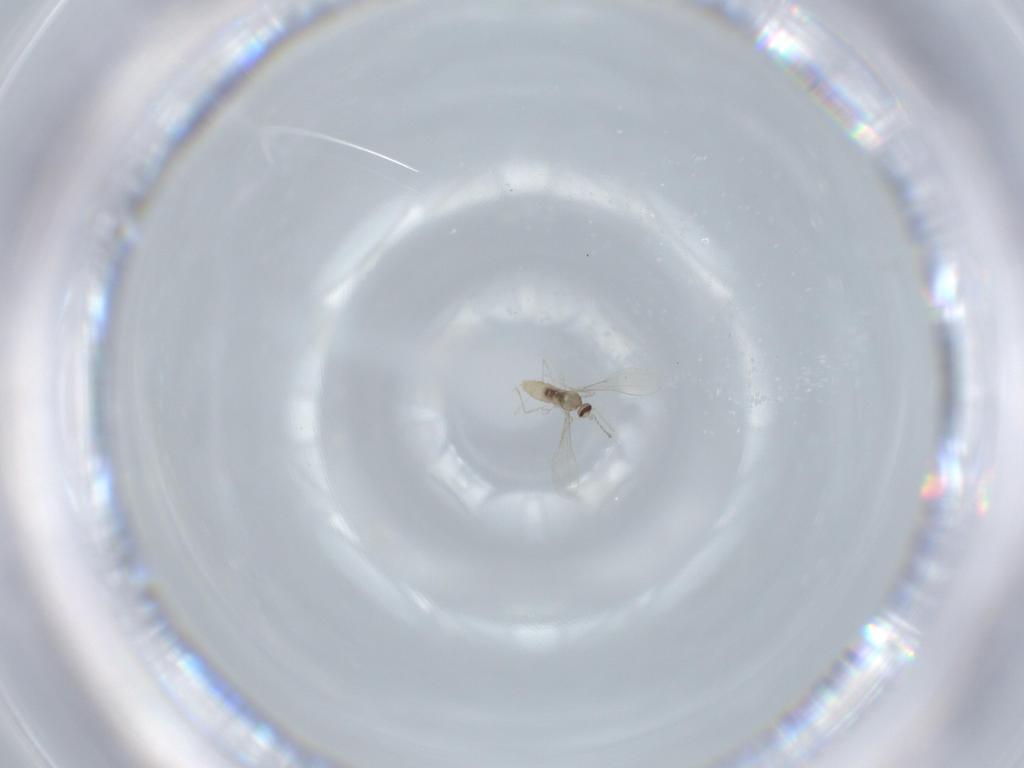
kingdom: Animalia
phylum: Arthropoda
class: Insecta
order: Diptera
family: Cecidomyiidae
